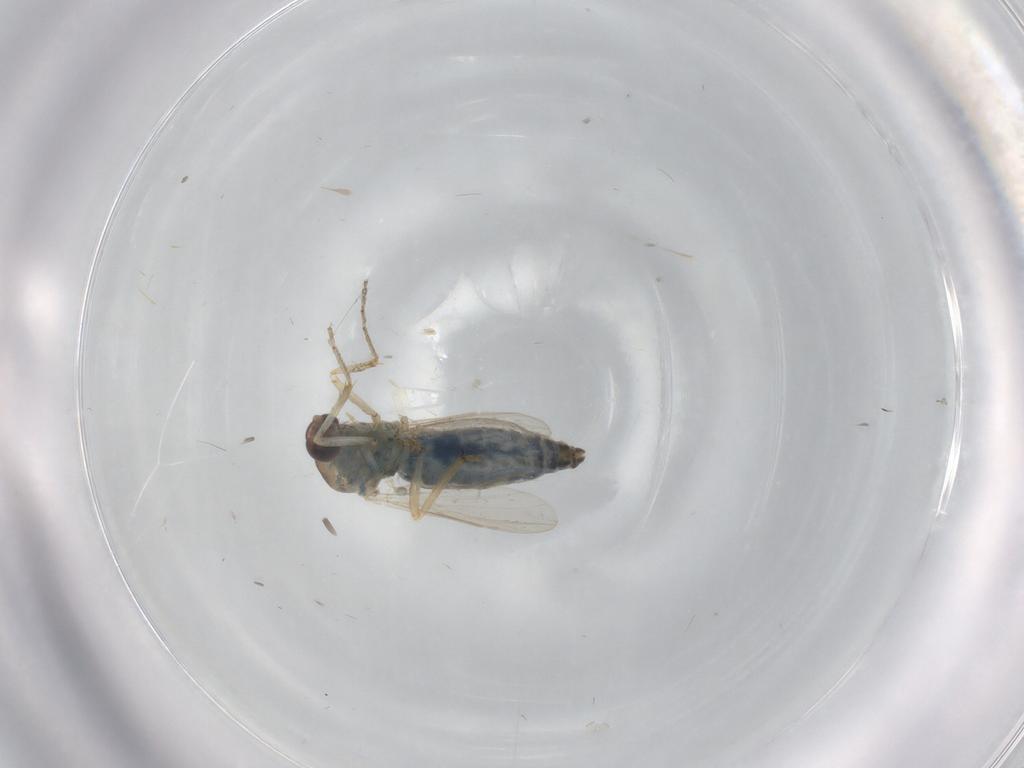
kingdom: Animalia
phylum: Arthropoda
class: Insecta
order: Diptera
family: Ceratopogonidae
